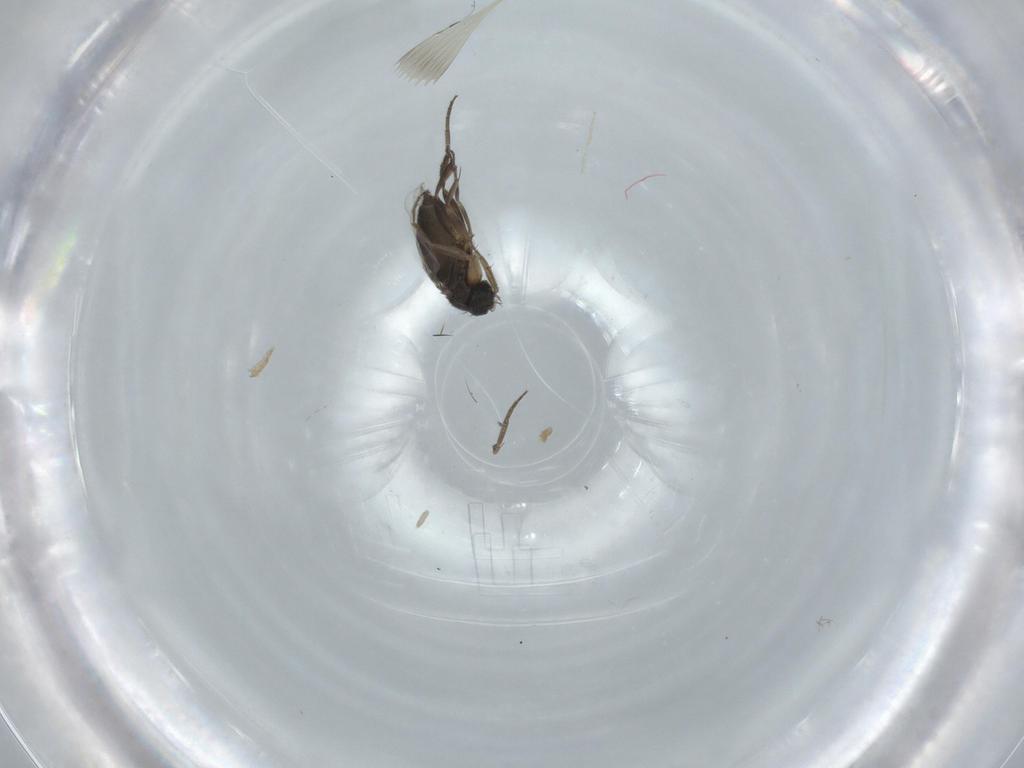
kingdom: Animalia
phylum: Arthropoda
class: Insecta
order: Diptera
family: Phoridae
